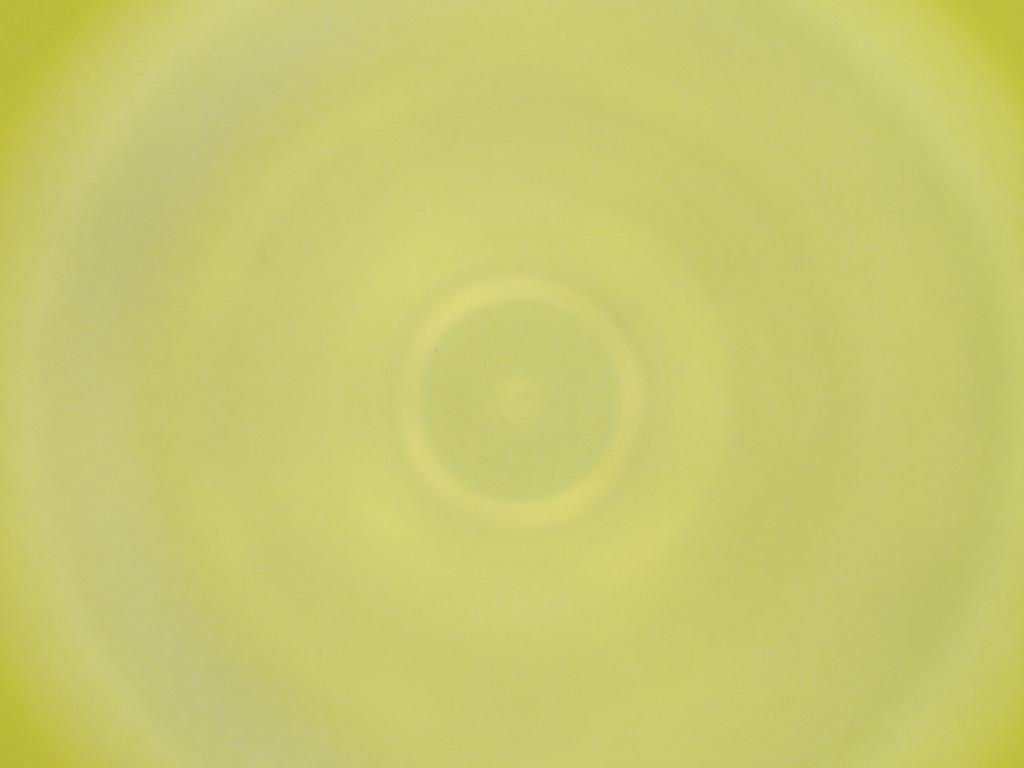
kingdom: Animalia
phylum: Arthropoda
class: Insecta
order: Diptera
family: Cecidomyiidae
